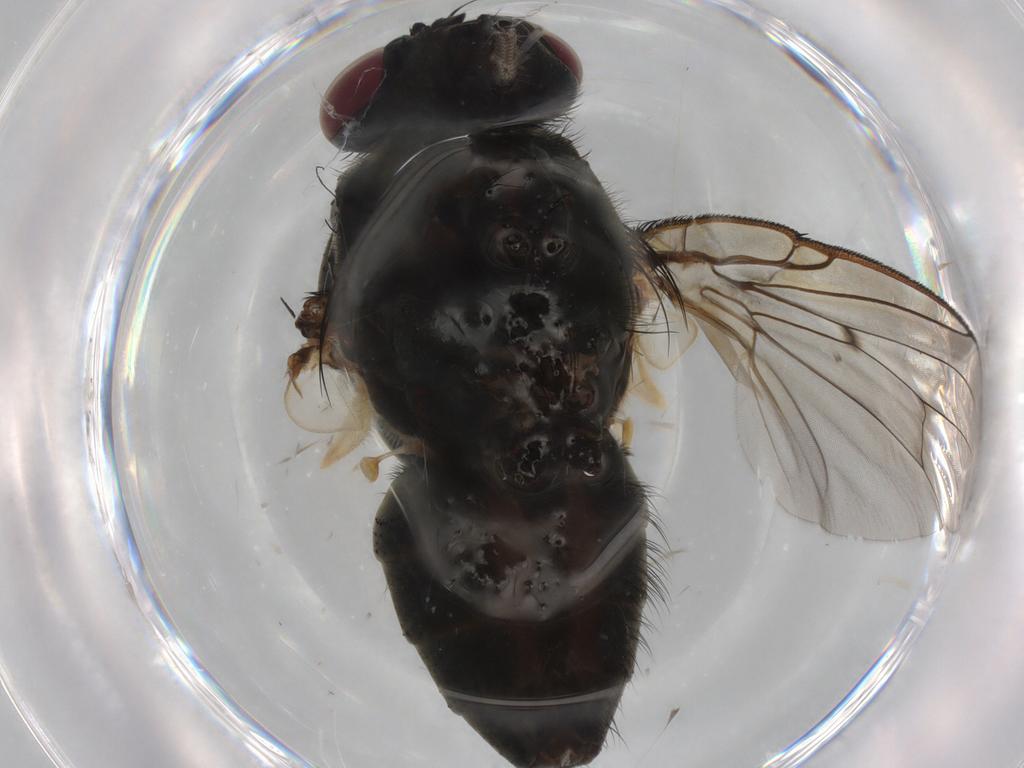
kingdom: Animalia
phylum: Arthropoda
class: Insecta
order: Diptera
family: Muscidae
